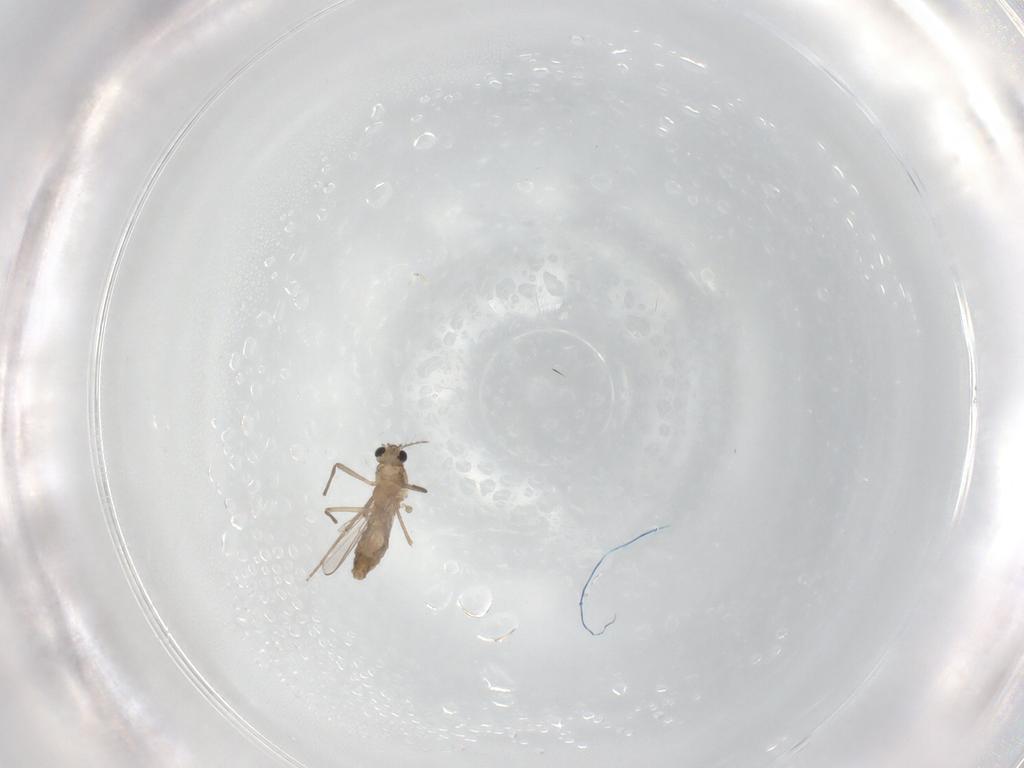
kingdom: Animalia
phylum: Arthropoda
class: Insecta
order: Diptera
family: Chironomidae
